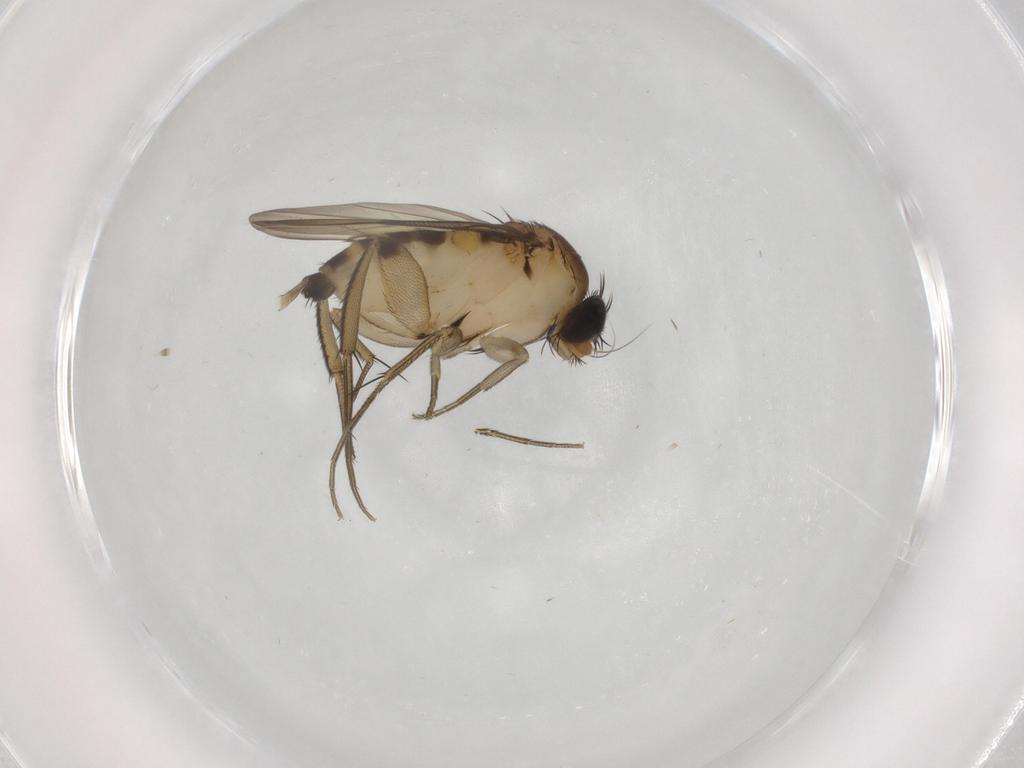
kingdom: Animalia
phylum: Arthropoda
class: Insecta
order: Diptera
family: Phoridae
